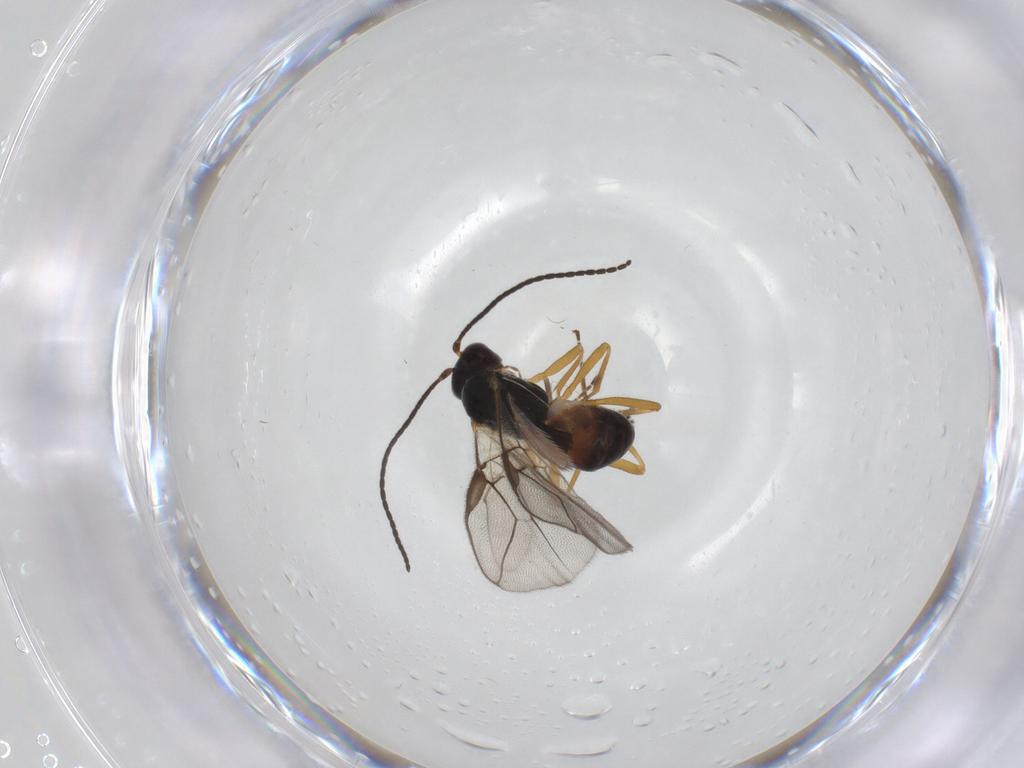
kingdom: Animalia
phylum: Arthropoda
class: Insecta
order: Hymenoptera
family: Braconidae
